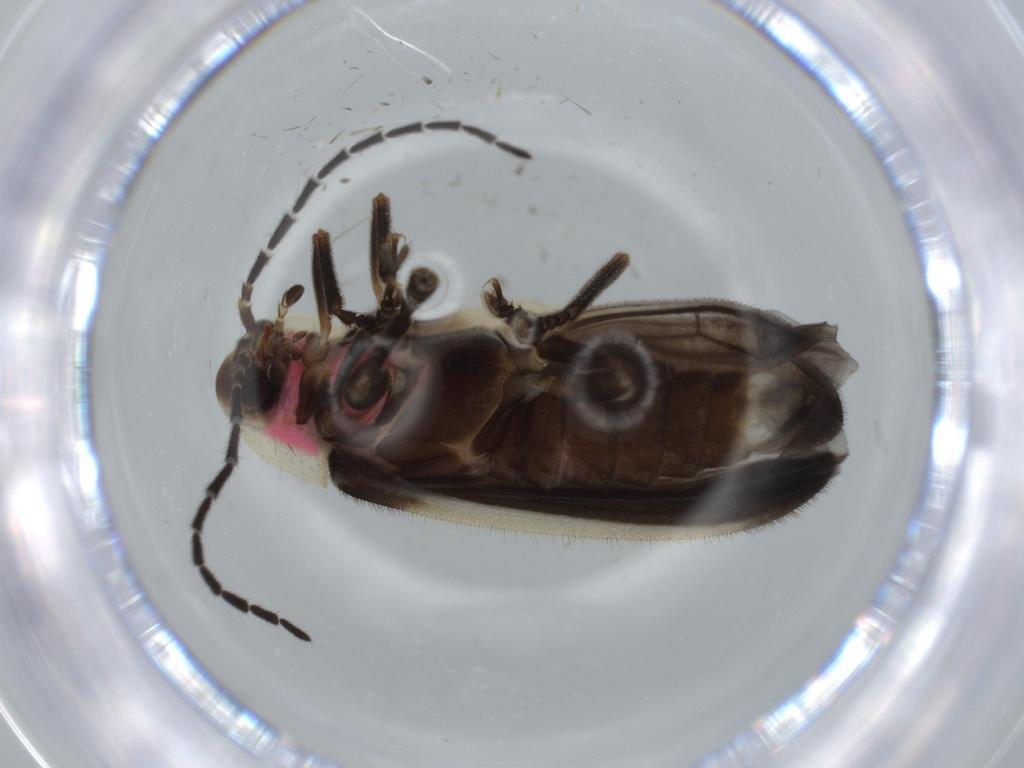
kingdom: Animalia
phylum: Arthropoda
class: Insecta
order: Coleoptera
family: Lampyridae
